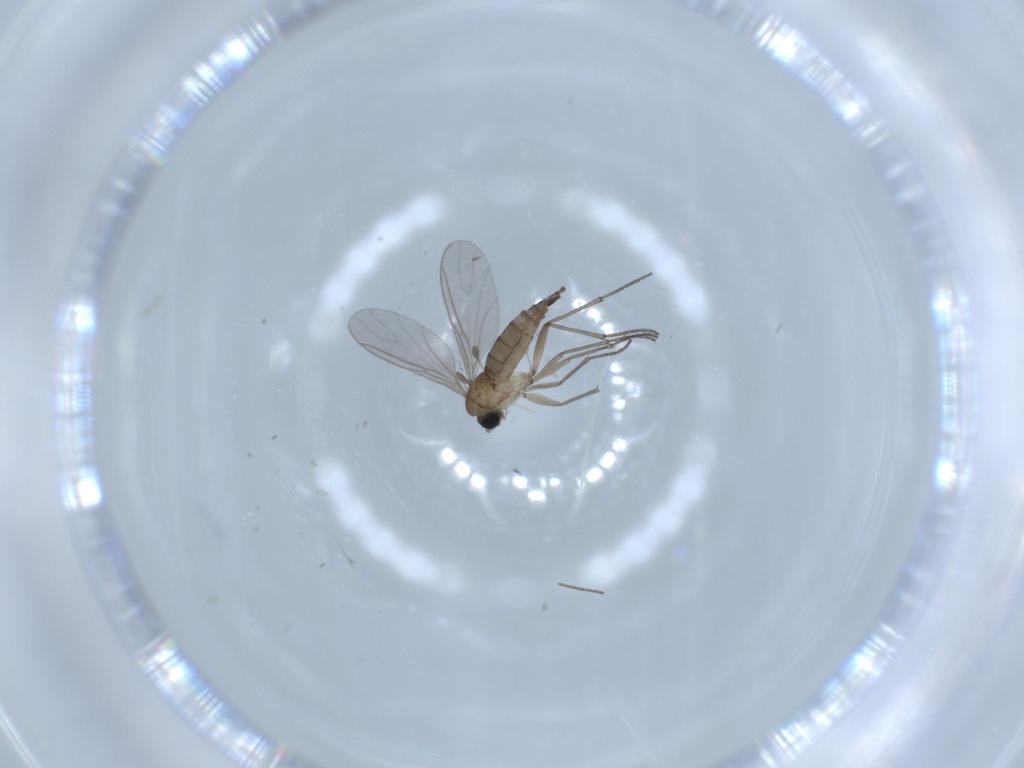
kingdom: Animalia
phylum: Arthropoda
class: Insecta
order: Diptera
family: Sciaridae
